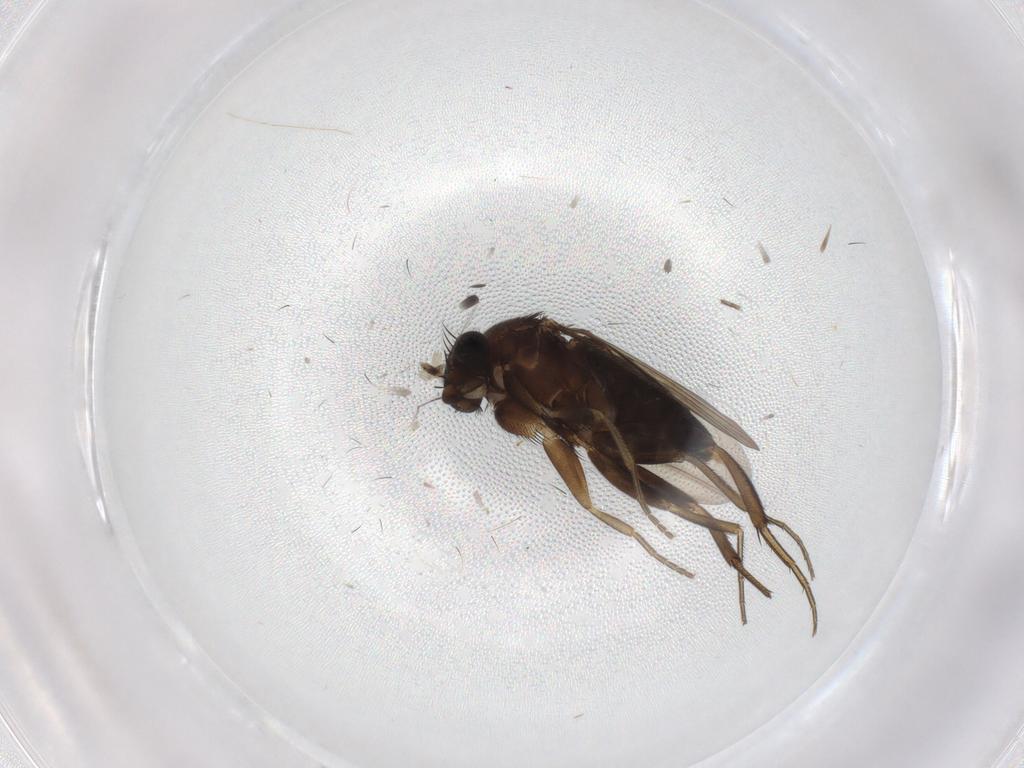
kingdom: Animalia
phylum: Arthropoda
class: Insecta
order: Diptera
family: Phoridae
